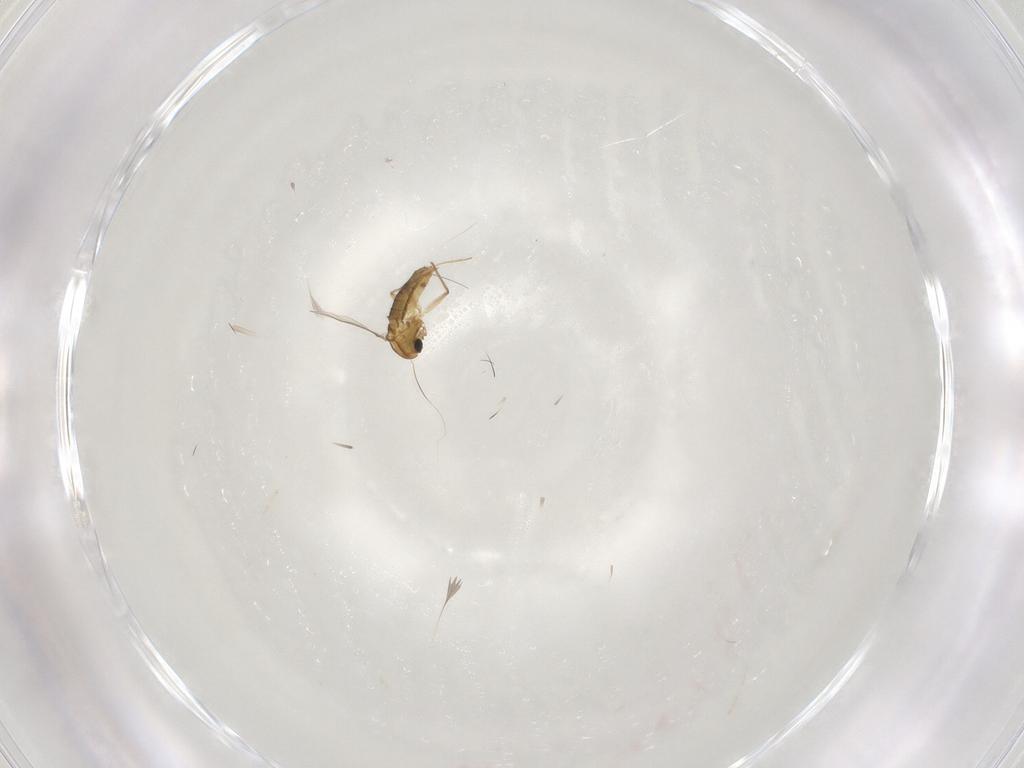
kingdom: Animalia
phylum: Arthropoda
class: Insecta
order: Diptera
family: Chironomidae
